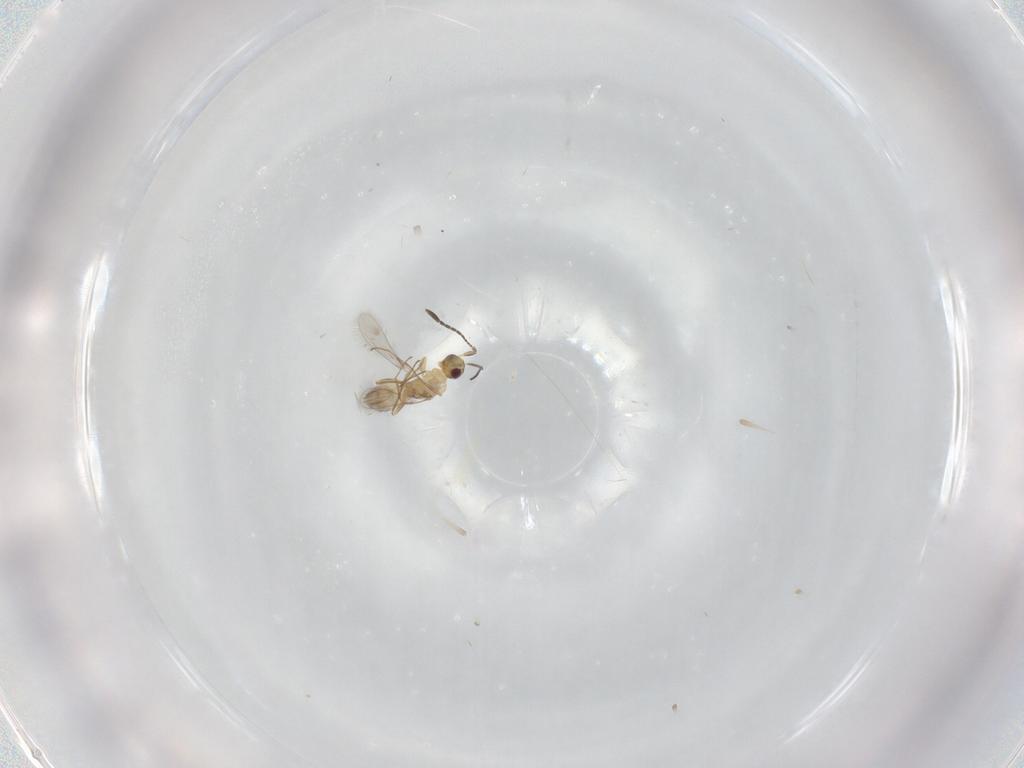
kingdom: Animalia
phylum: Arthropoda
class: Insecta
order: Hymenoptera
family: Mymaridae
